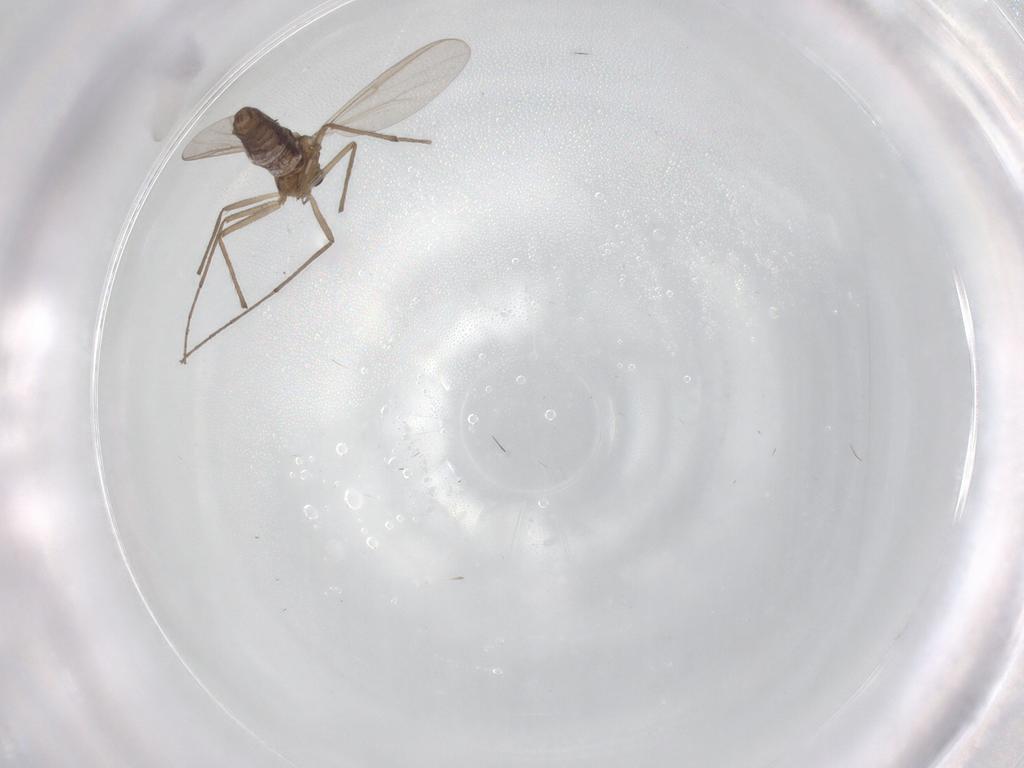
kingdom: Animalia
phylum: Arthropoda
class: Insecta
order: Diptera
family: Chironomidae
